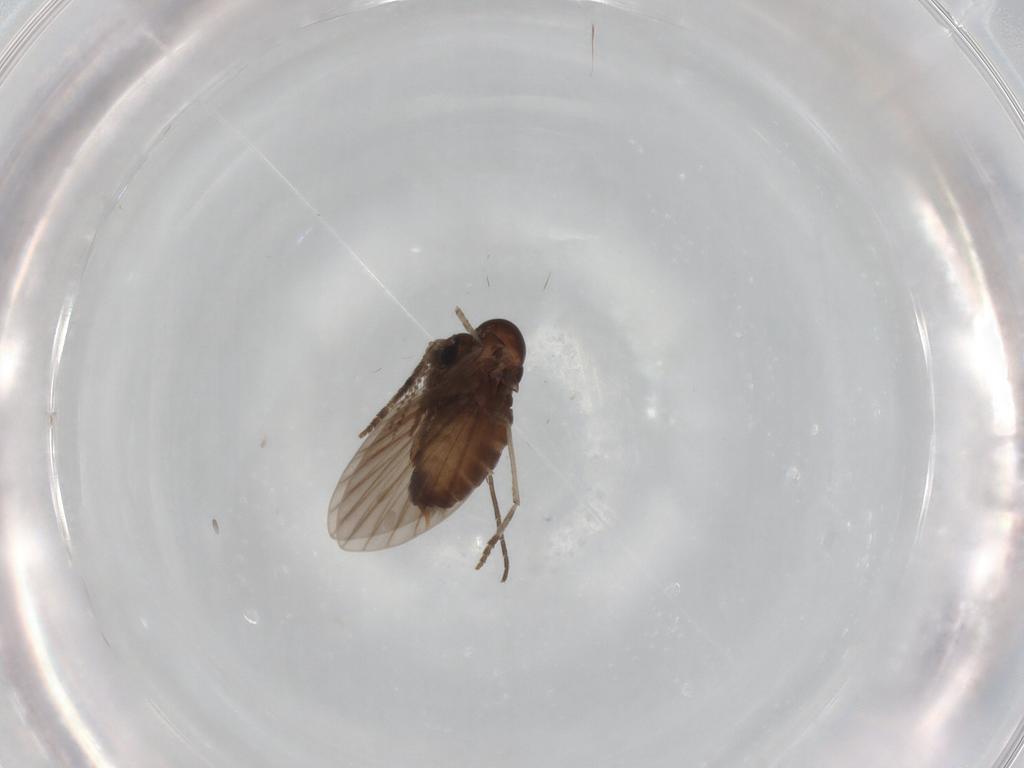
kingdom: Animalia
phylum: Arthropoda
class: Insecta
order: Diptera
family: Psychodidae
